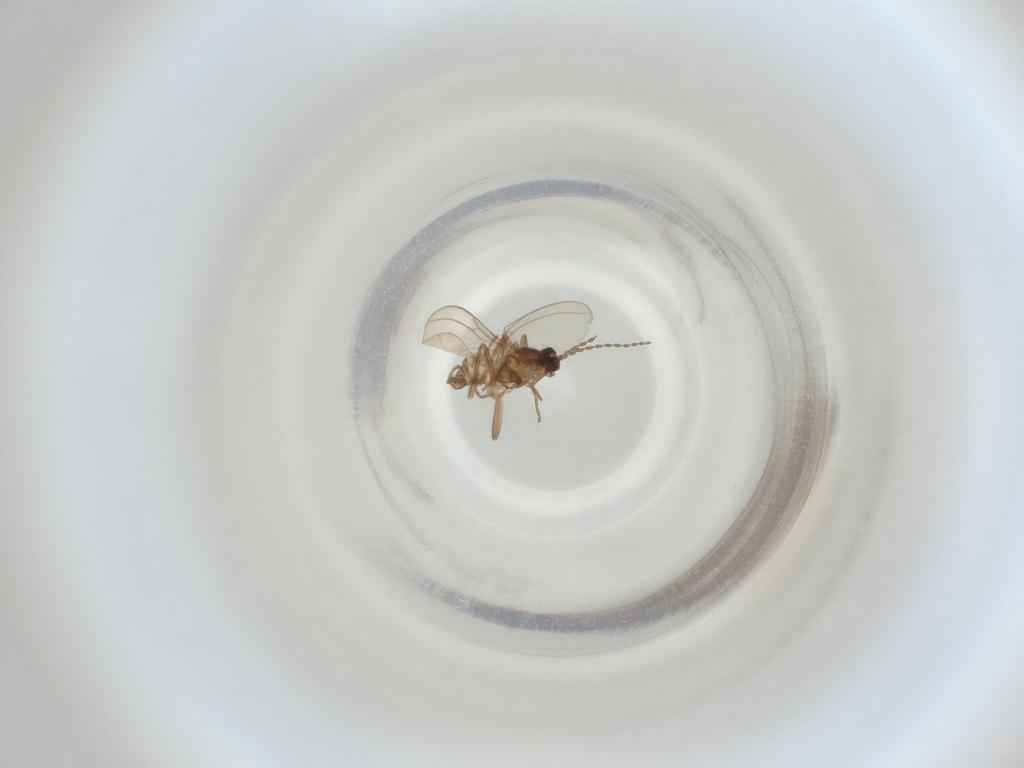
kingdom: Animalia
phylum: Arthropoda
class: Insecta
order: Diptera
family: Cecidomyiidae
